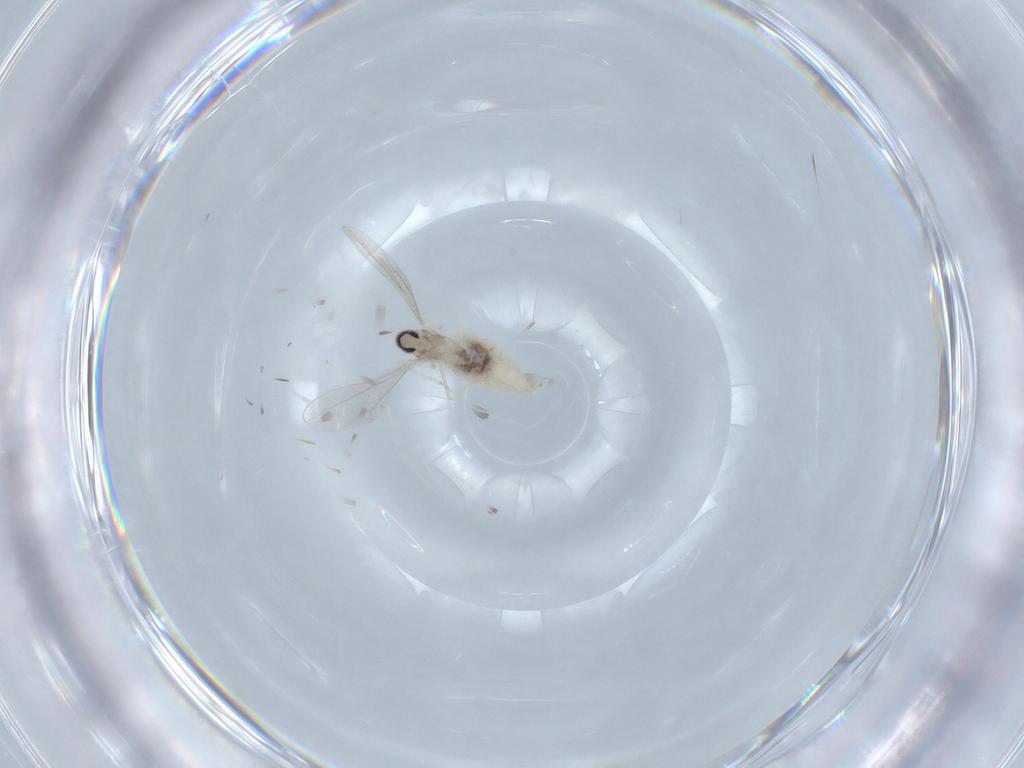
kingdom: Animalia
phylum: Arthropoda
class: Insecta
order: Diptera
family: Cecidomyiidae
